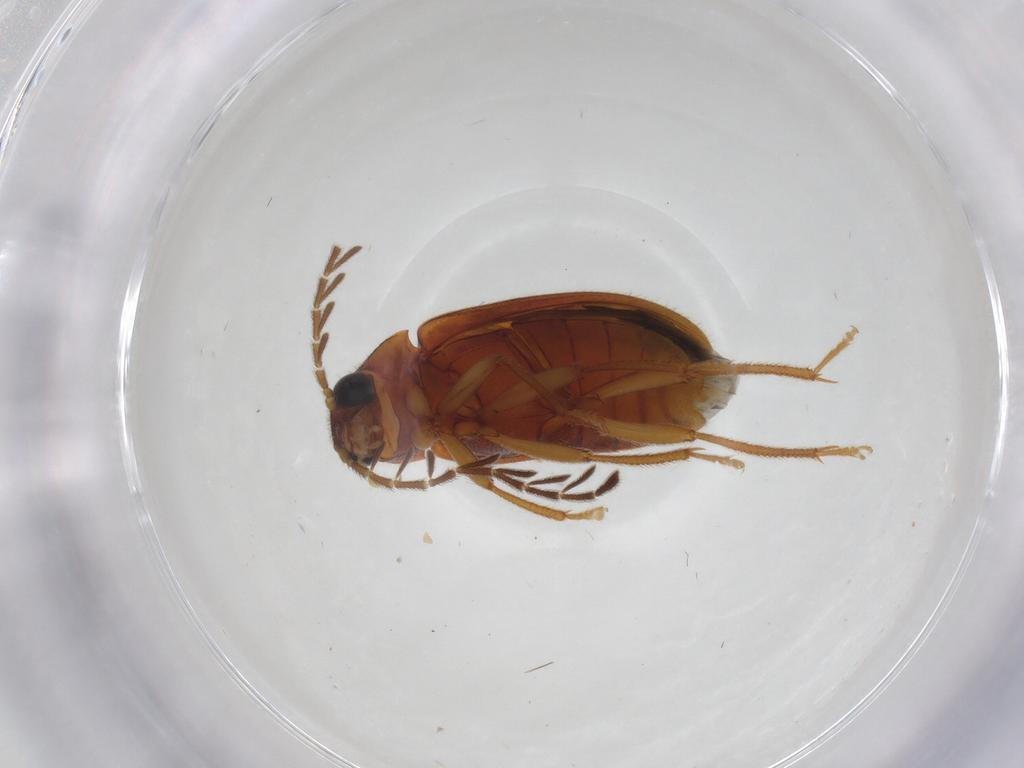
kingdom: Animalia
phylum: Arthropoda
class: Insecta
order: Coleoptera
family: Ptilodactylidae
